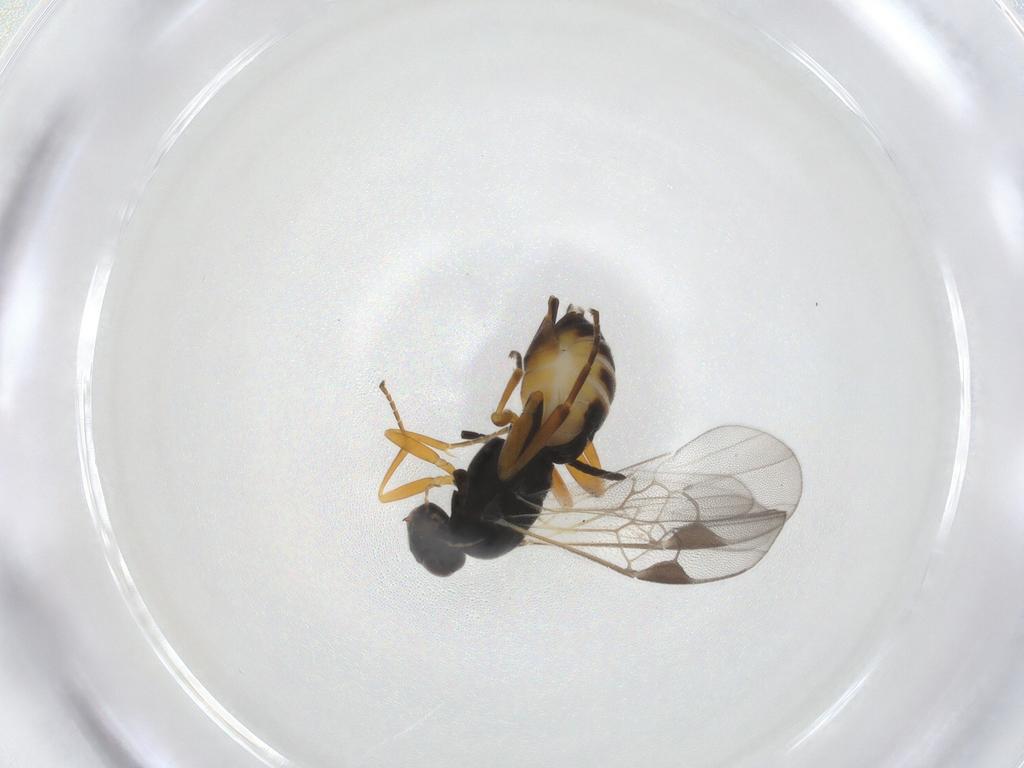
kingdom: Animalia
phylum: Arthropoda
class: Insecta
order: Hymenoptera
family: Braconidae
